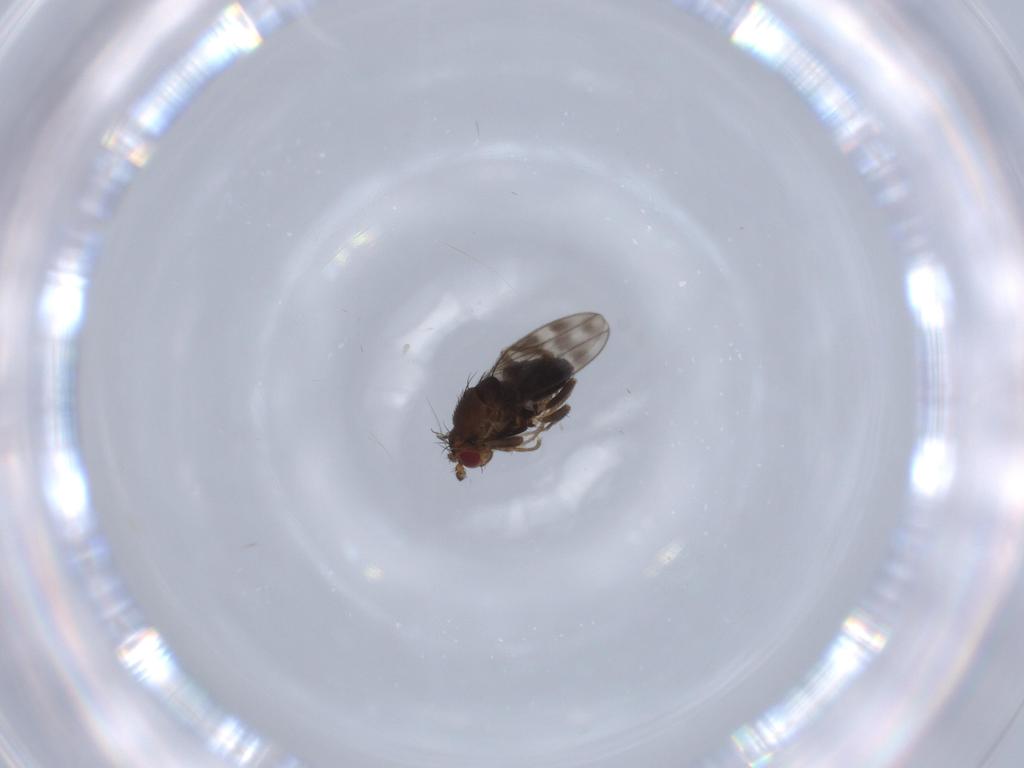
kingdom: Animalia
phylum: Arthropoda
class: Insecta
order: Diptera
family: Sphaeroceridae
